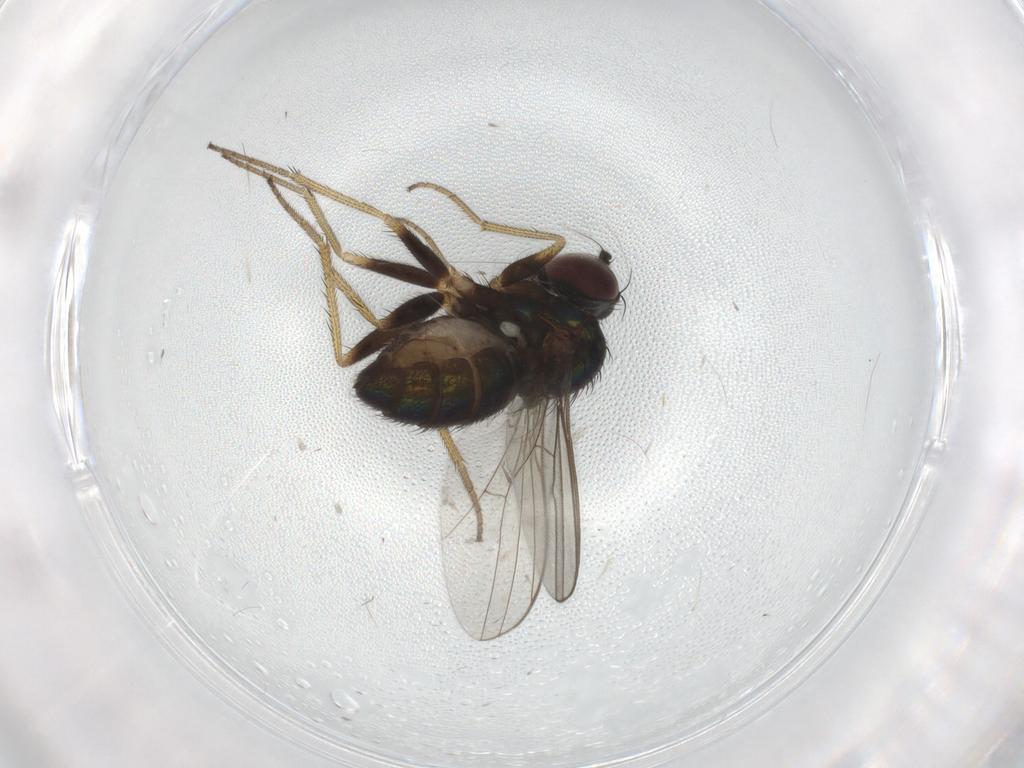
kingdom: Animalia
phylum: Arthropoda
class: Insecta
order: Diptera
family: Dolichopodidae
